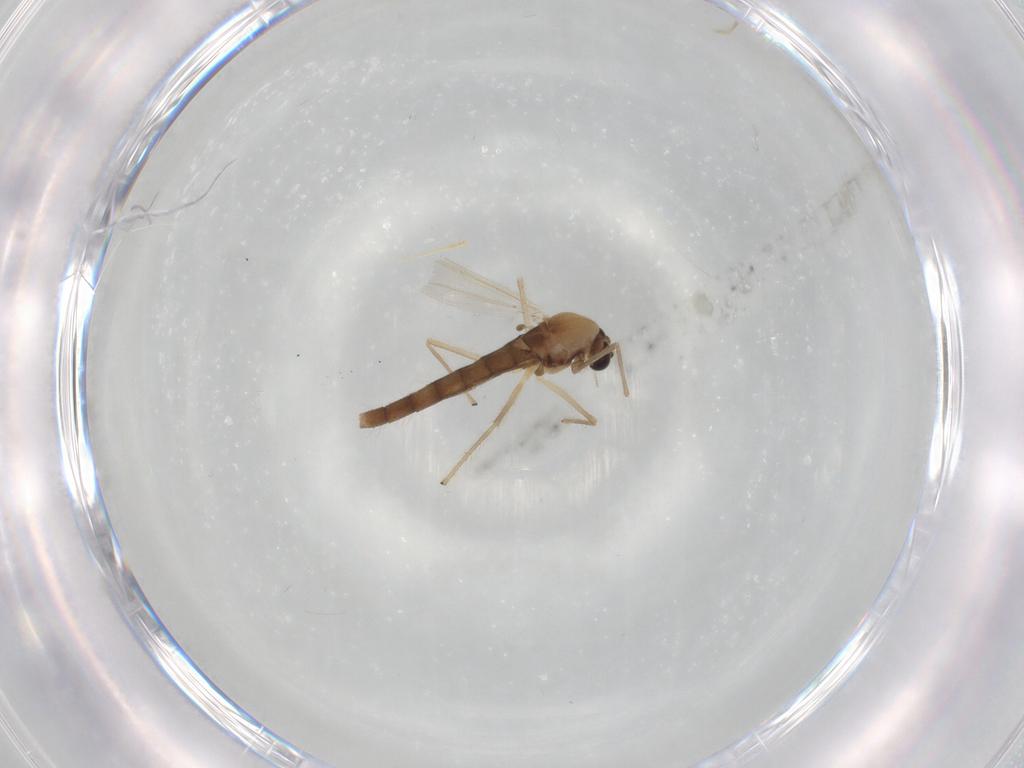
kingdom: Animalia
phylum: Arthropoda
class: Insecta
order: Diptera
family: Chironomidae
